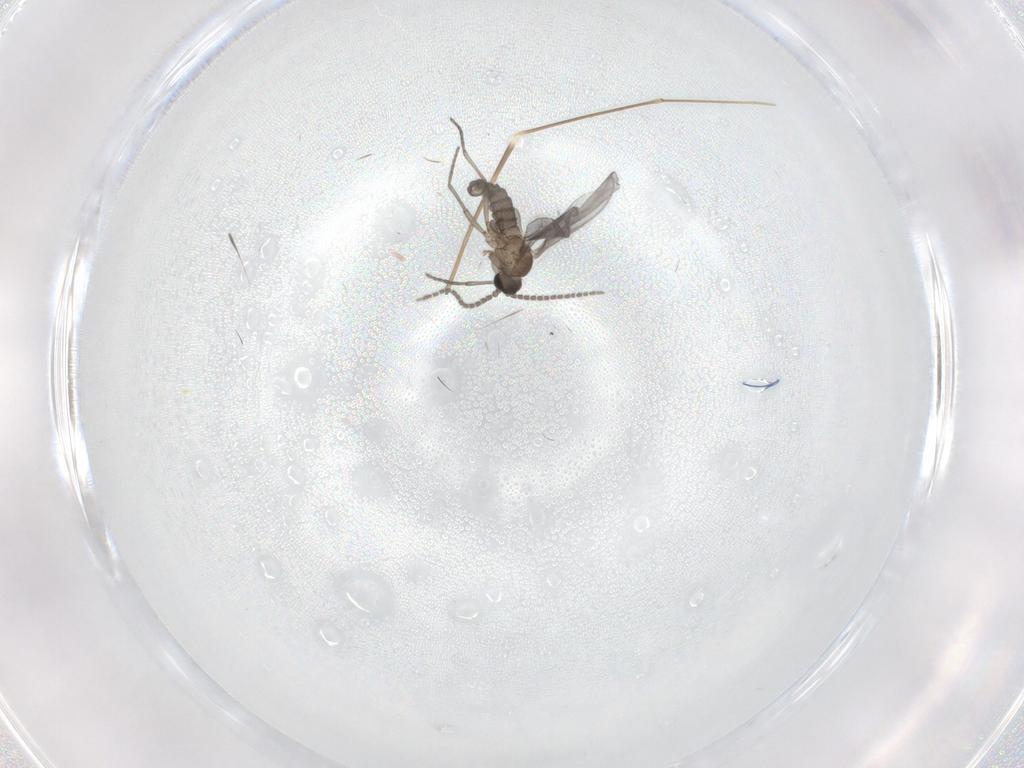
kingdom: Animalia
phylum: Arthropoda
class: Insecta
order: Diptera
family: Sciaridae
